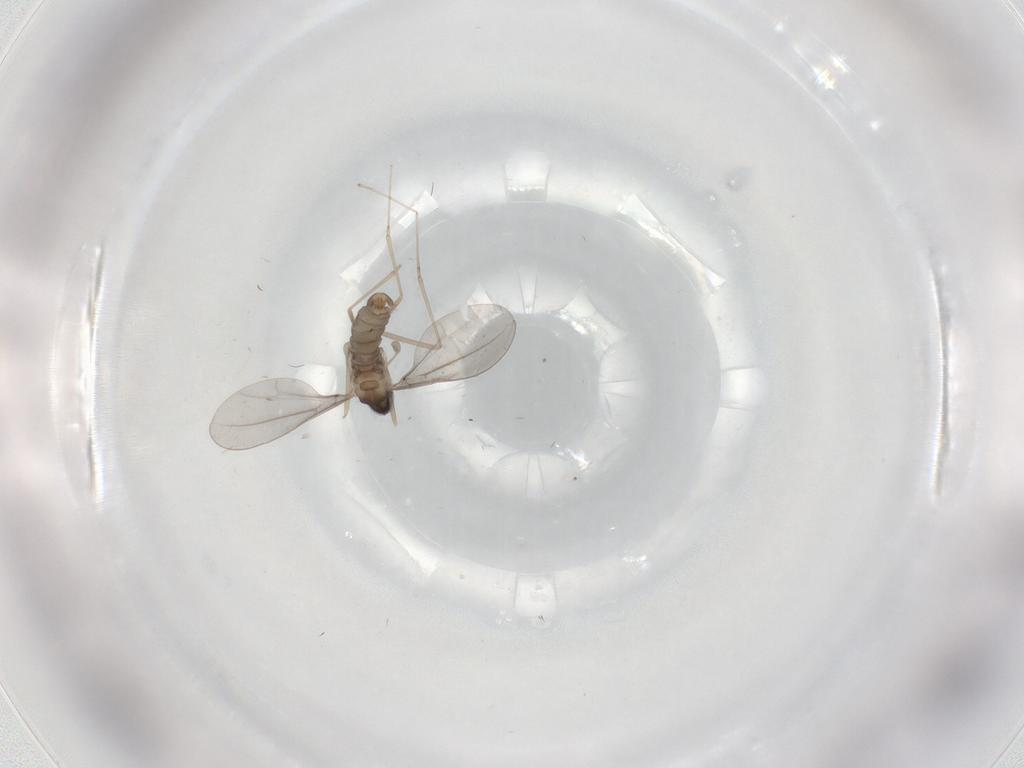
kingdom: Animalia
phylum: Arthropoda
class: Insecta
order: Diptera
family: Cecidomyiidae
